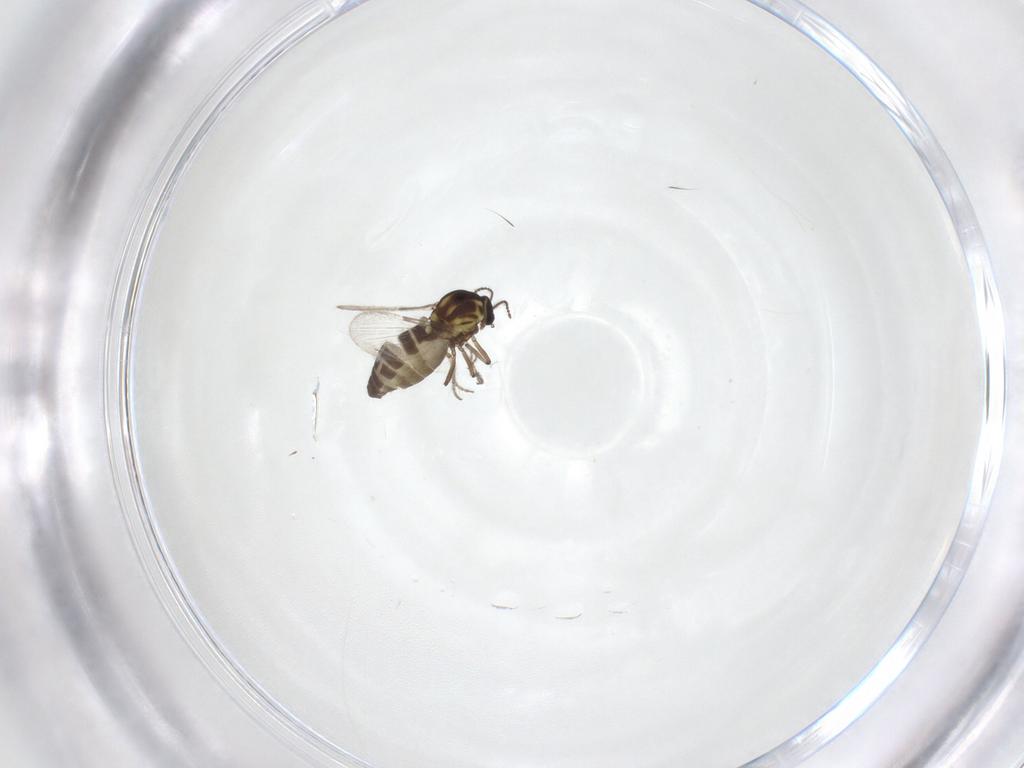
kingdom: Animalia
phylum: Arthropoda
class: Insecta
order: Diptera
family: Ceratopogonidae
